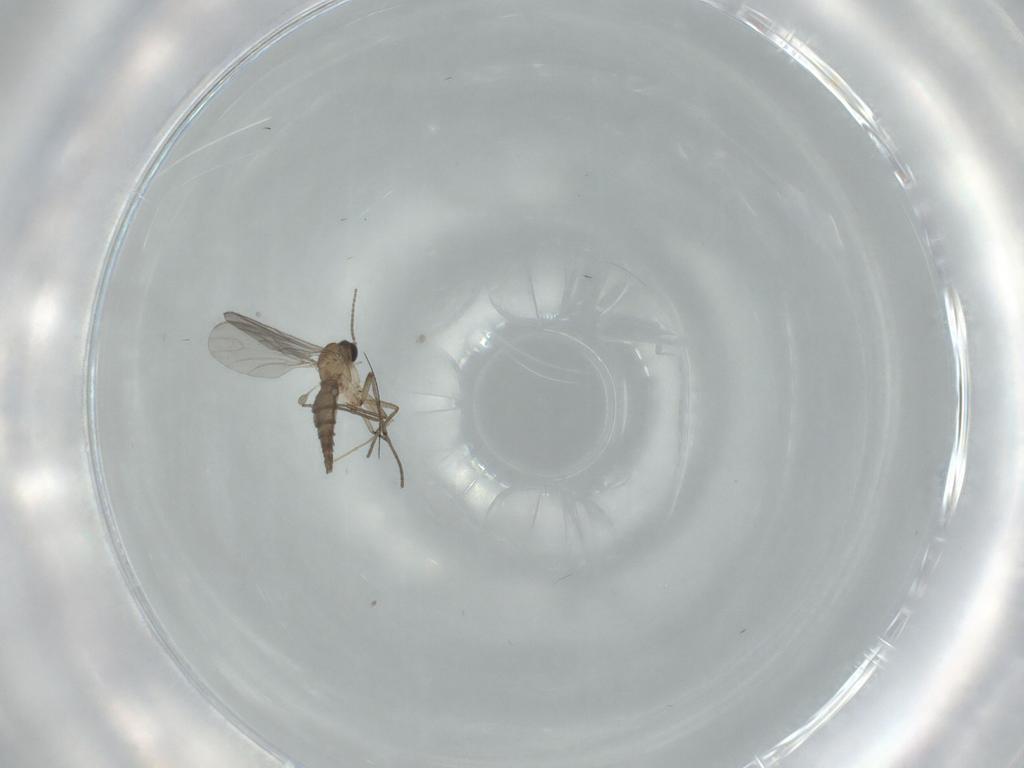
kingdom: Animalia
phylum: Arthropoda
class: Insecta
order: Diptera
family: Sciaridae
